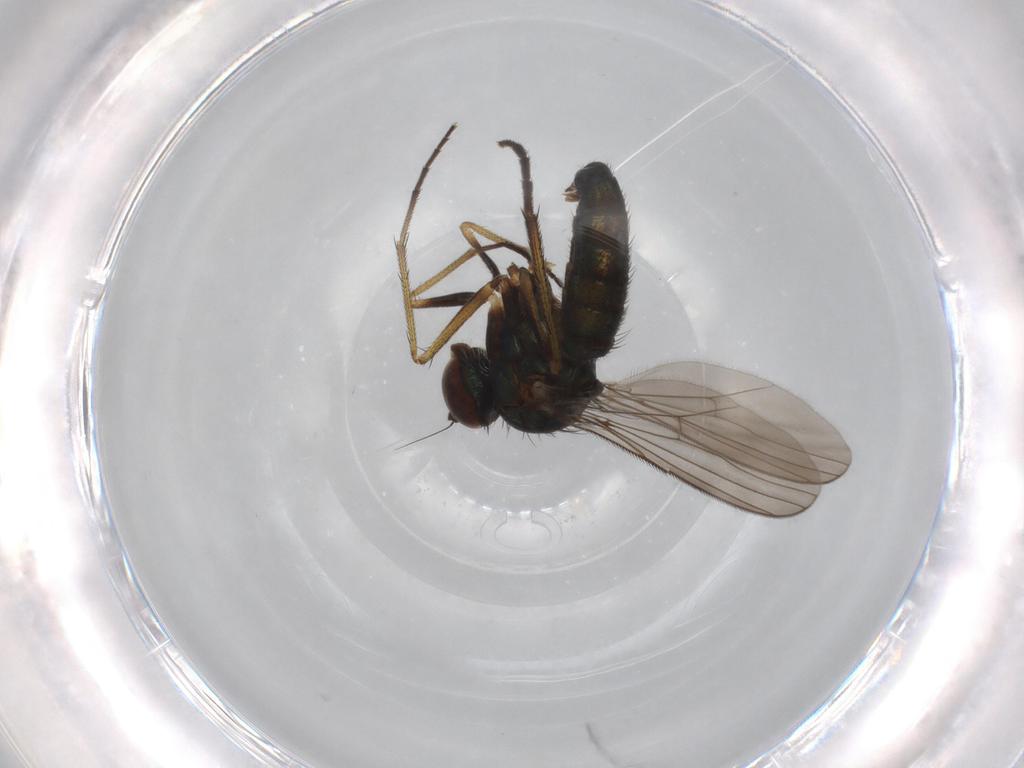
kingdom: Animalia
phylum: Arthropoda
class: Insecta
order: Diptera
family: Dolichopodidae
